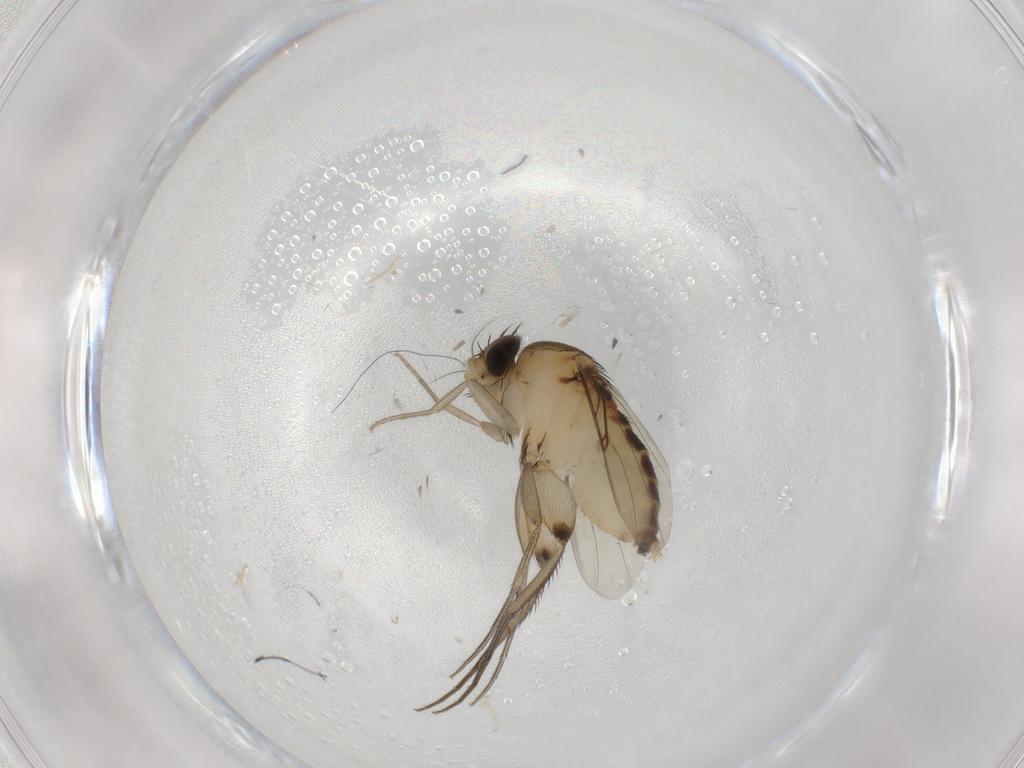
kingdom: Animalia
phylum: Arthropoda
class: Insecta
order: Diptera
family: Phoridae
